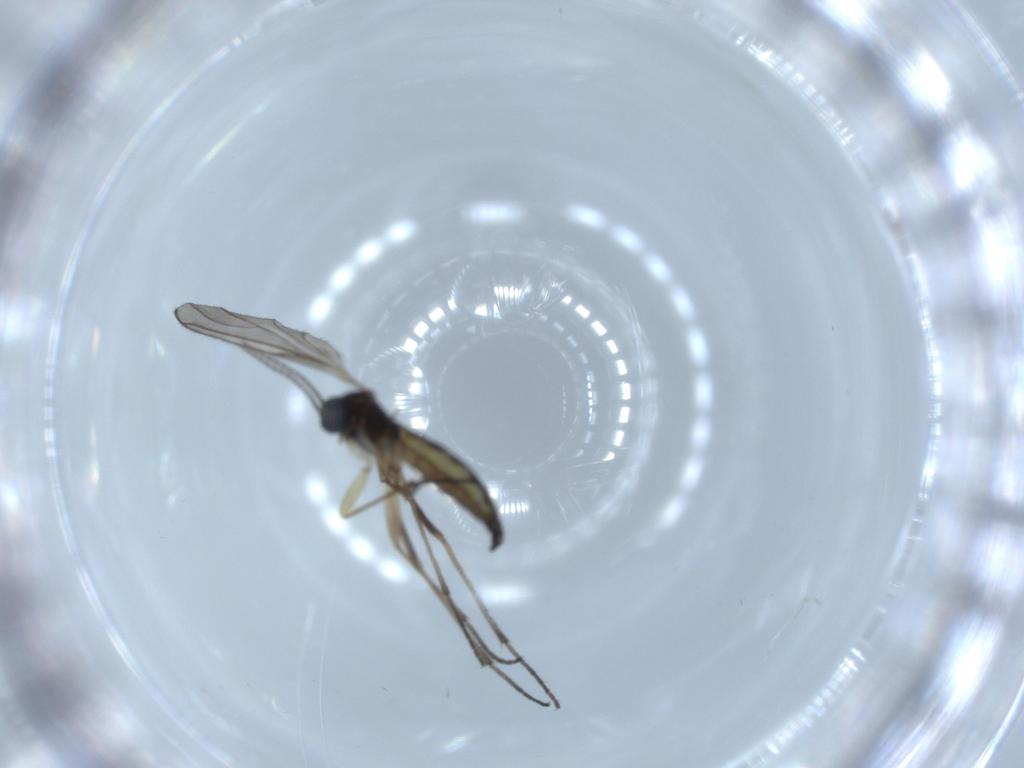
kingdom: Animalia
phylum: Arthropoda
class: Insecta
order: Diptera
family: Sciaridae
